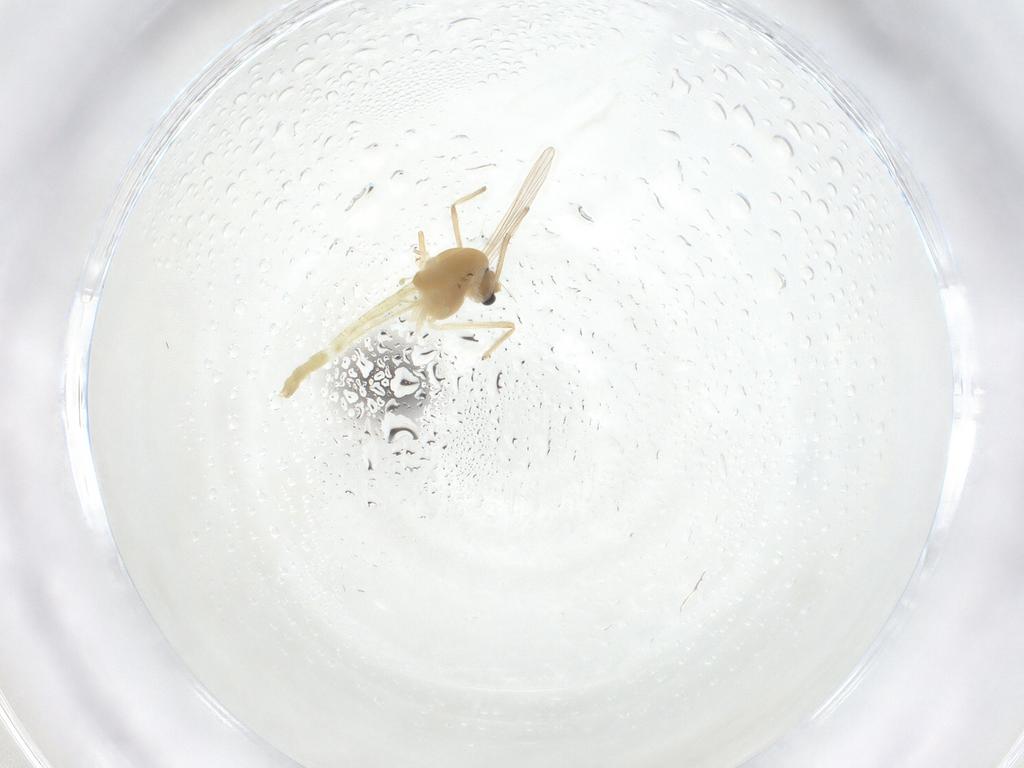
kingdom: Animalia
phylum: Arthropoda
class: Insecta
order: Diptera
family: Chironomidae
